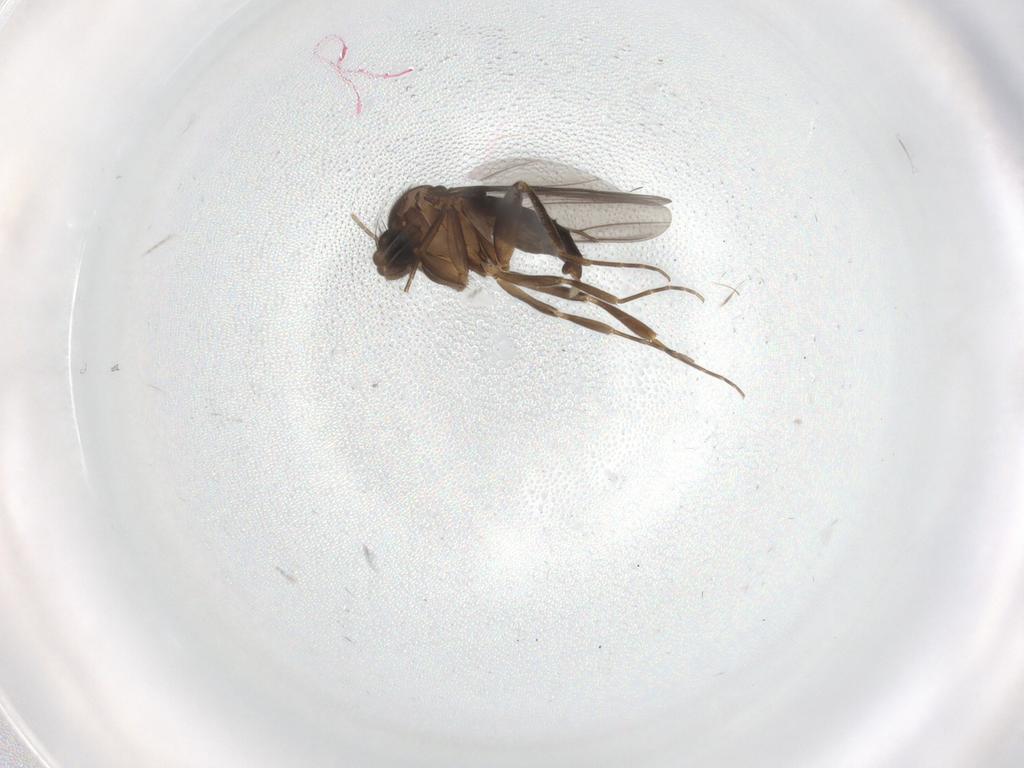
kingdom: Animalia
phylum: Arthropoda
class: Insecta
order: Diptera
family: Phoridae
